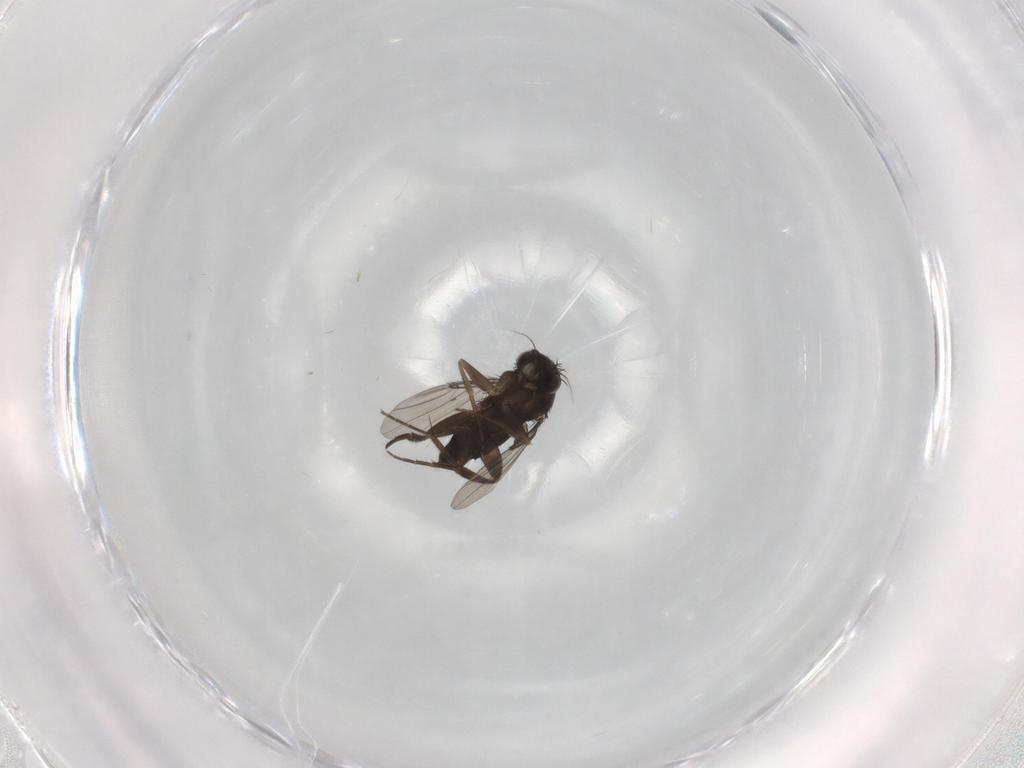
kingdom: Animalia
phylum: Arthropoda
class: Insecta
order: Diptera
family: Phoridae
